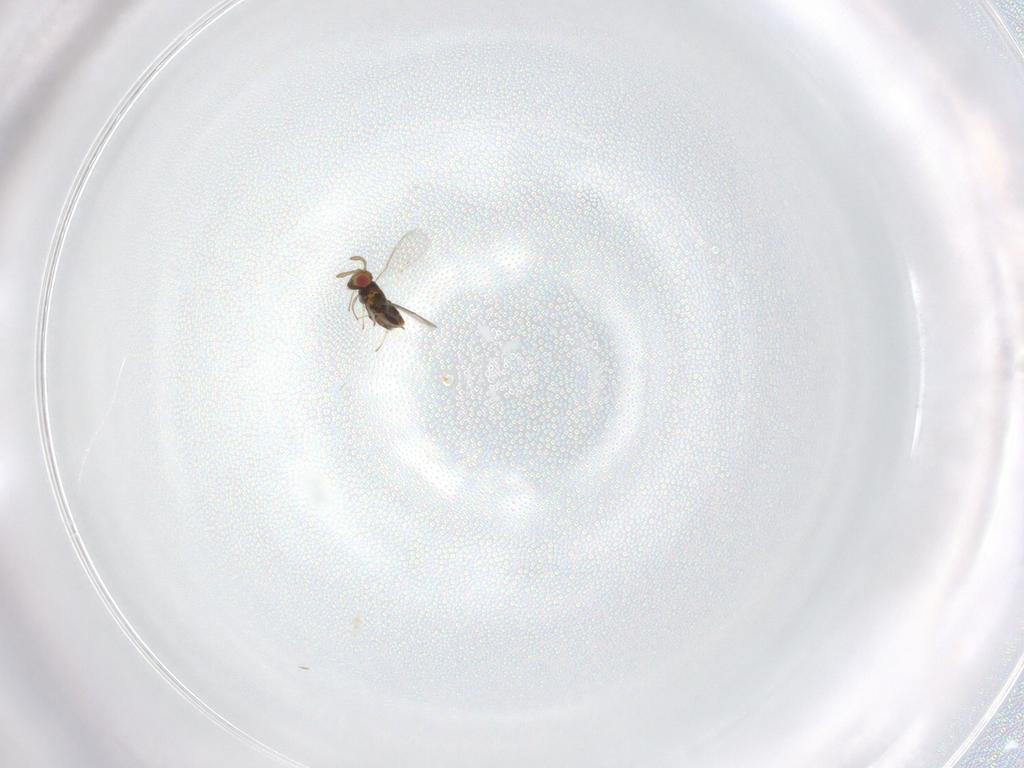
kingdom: Animalia
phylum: Arthropoda
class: Insecta
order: Hymenoptera
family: Aphelinidae
